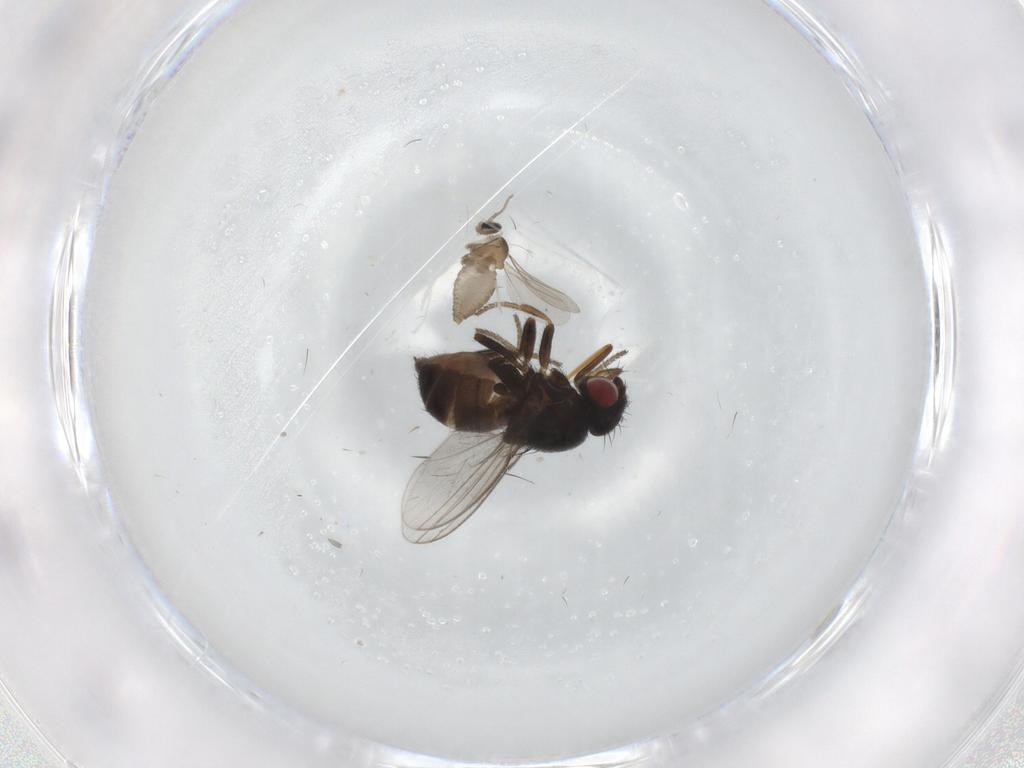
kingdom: Animalia
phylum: Arthropoda
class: Insecta
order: Diptera
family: Milichiidae
